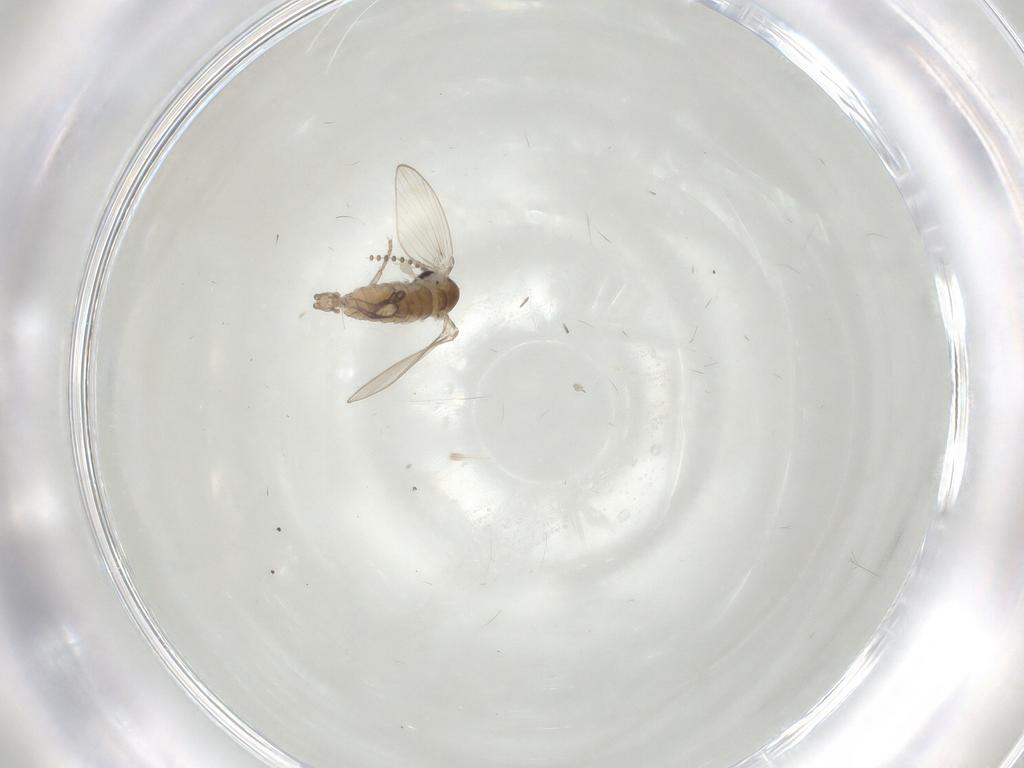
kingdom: Animalia
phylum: Arthropoda
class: Insecta
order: Diptera
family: Psychodidae
